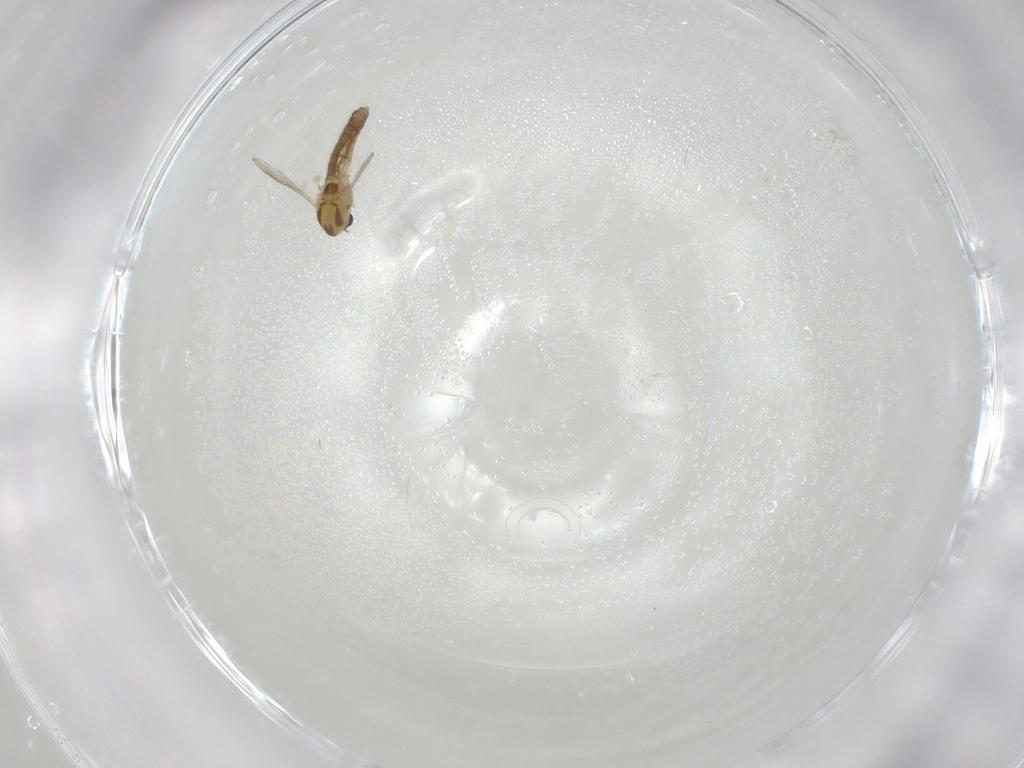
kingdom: Animalia
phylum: Arthropoda
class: Insecta
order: Diptera
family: Chironomidae
